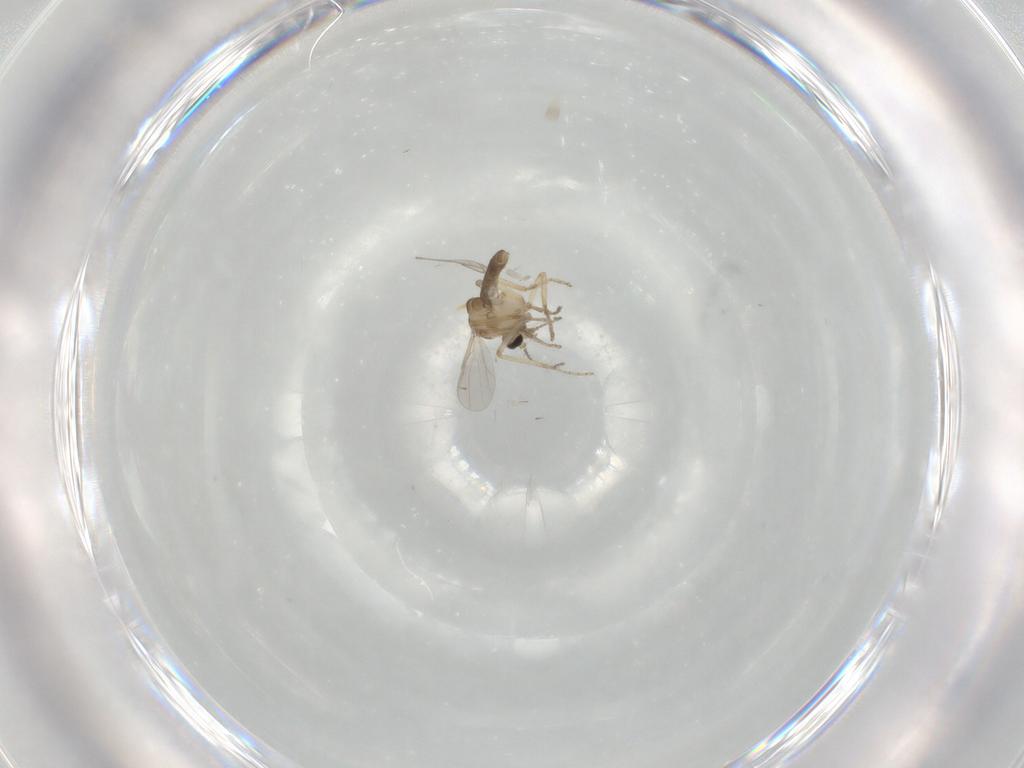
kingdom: Animalia
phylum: Arthropoda
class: Insecta
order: Diptera
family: Ceratopogonidae
